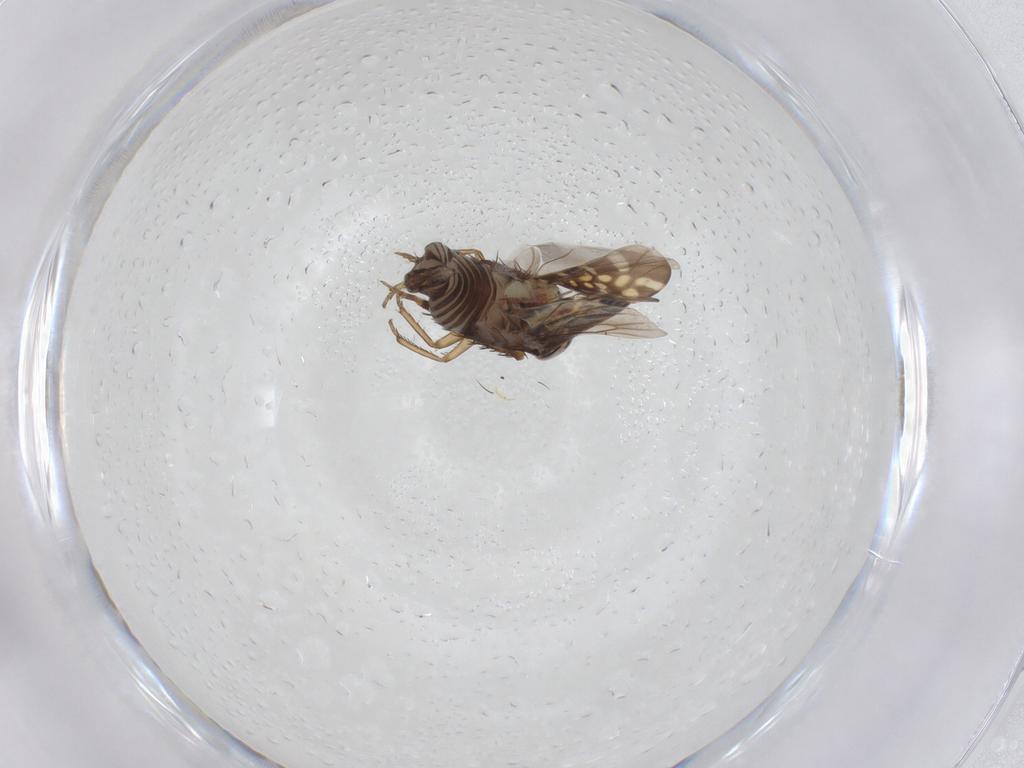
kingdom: Animalia
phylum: Arthropoda
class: Insecta
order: Hemiptera
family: Cicadellidae
